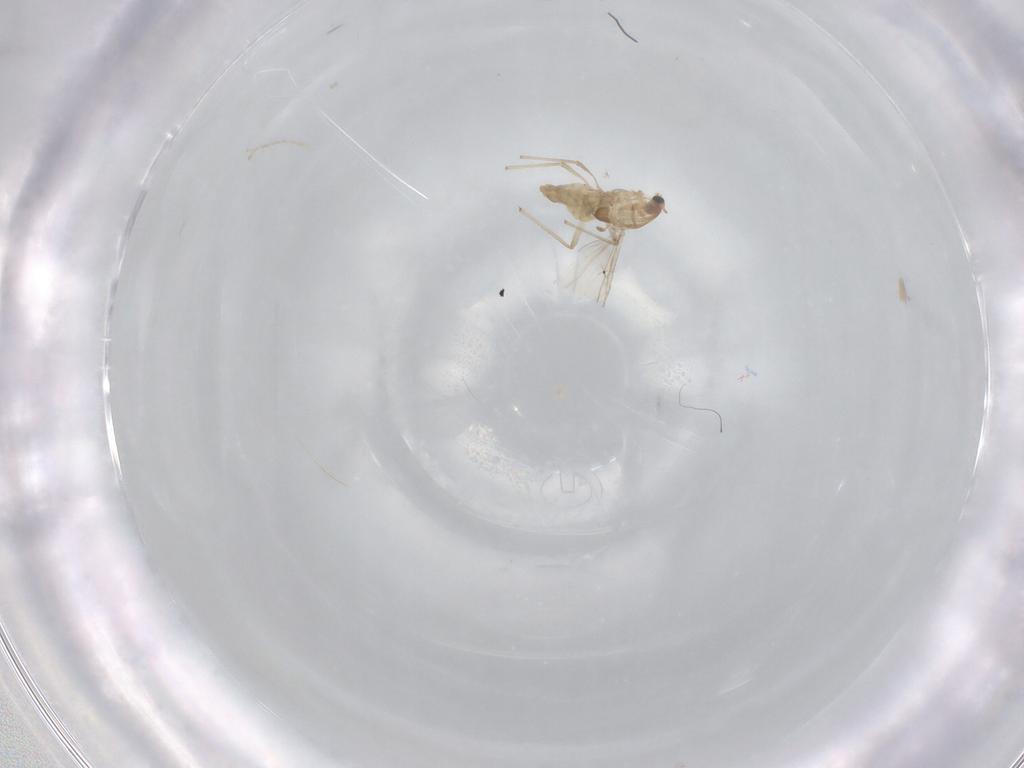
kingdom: Animalia
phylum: Arthropoda
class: Insecta
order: Diptera
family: Chironomidae
